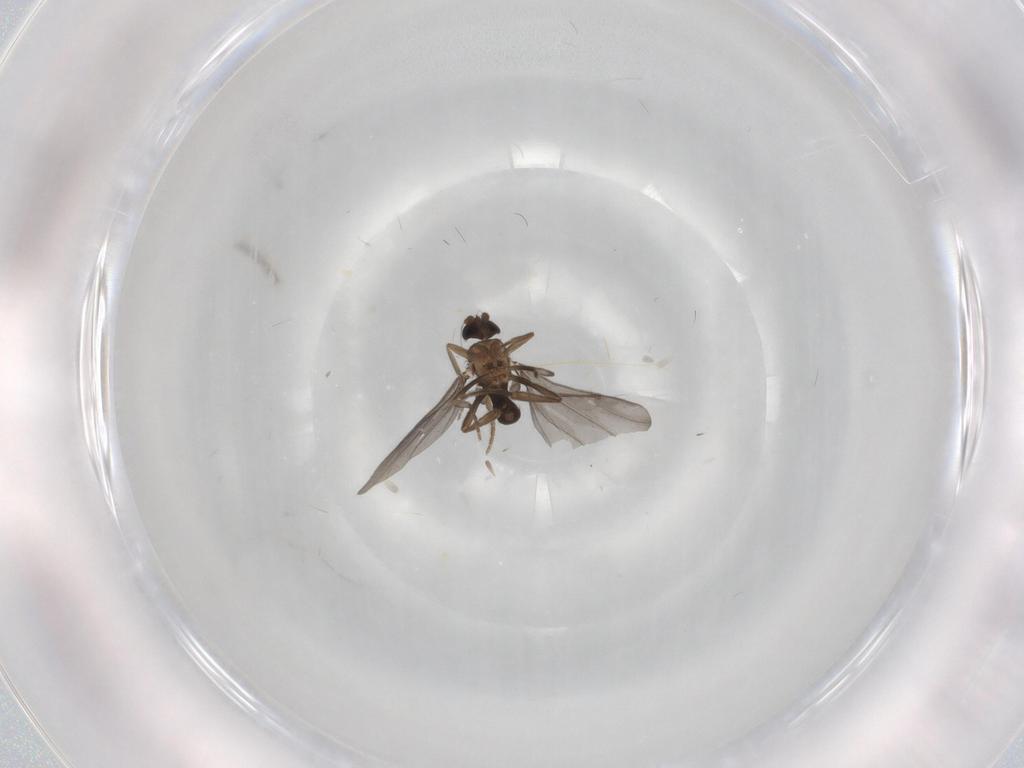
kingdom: Animalia
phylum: Arthropoda
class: Insecta
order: Diptera
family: Phoridae
